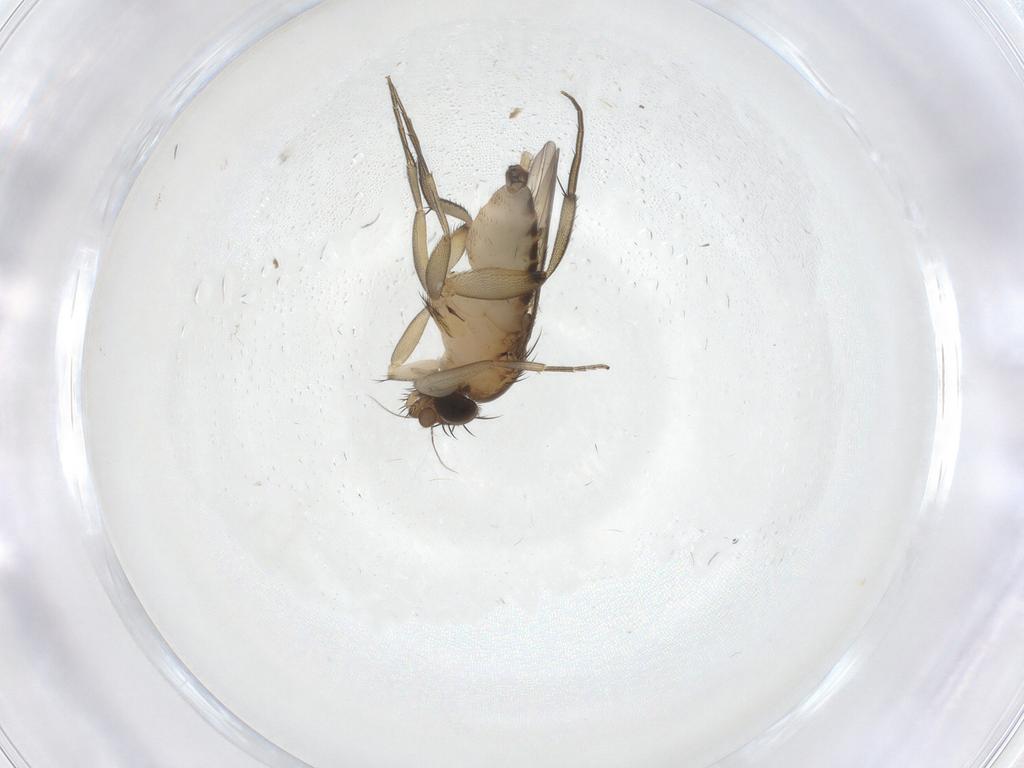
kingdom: Animalia
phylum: Arthropoda
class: Insecta
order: Diptera
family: Phoridae
